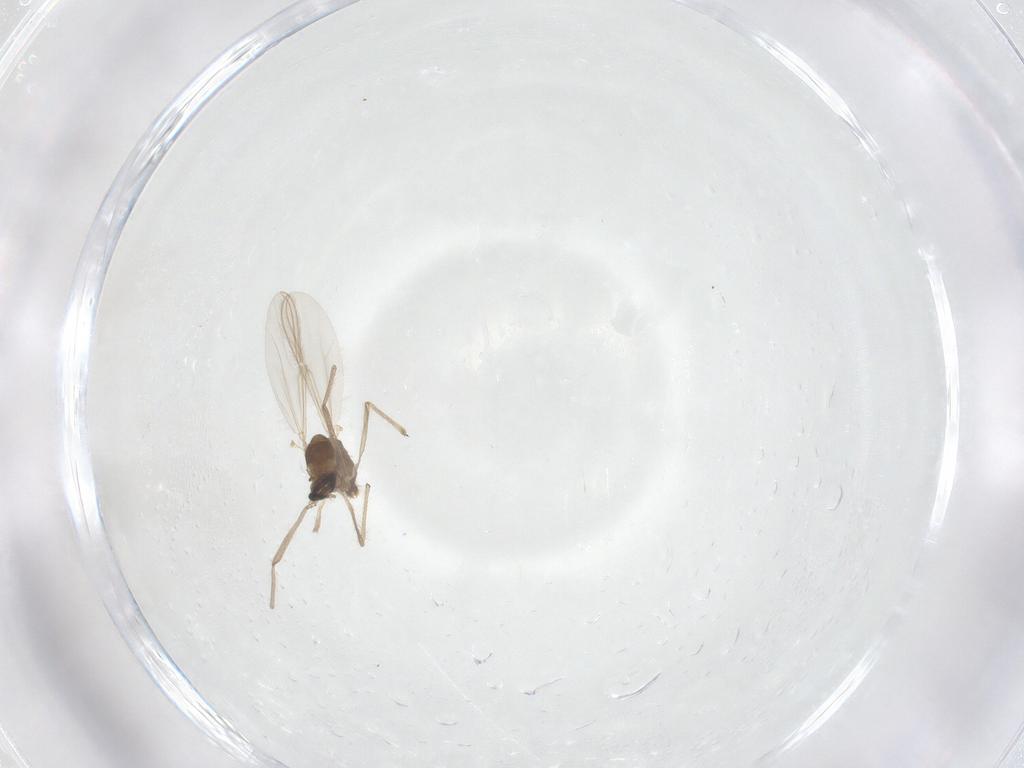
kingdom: Animalia
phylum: Arthropoda
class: Insecta
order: Diptera
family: Chironomidae
